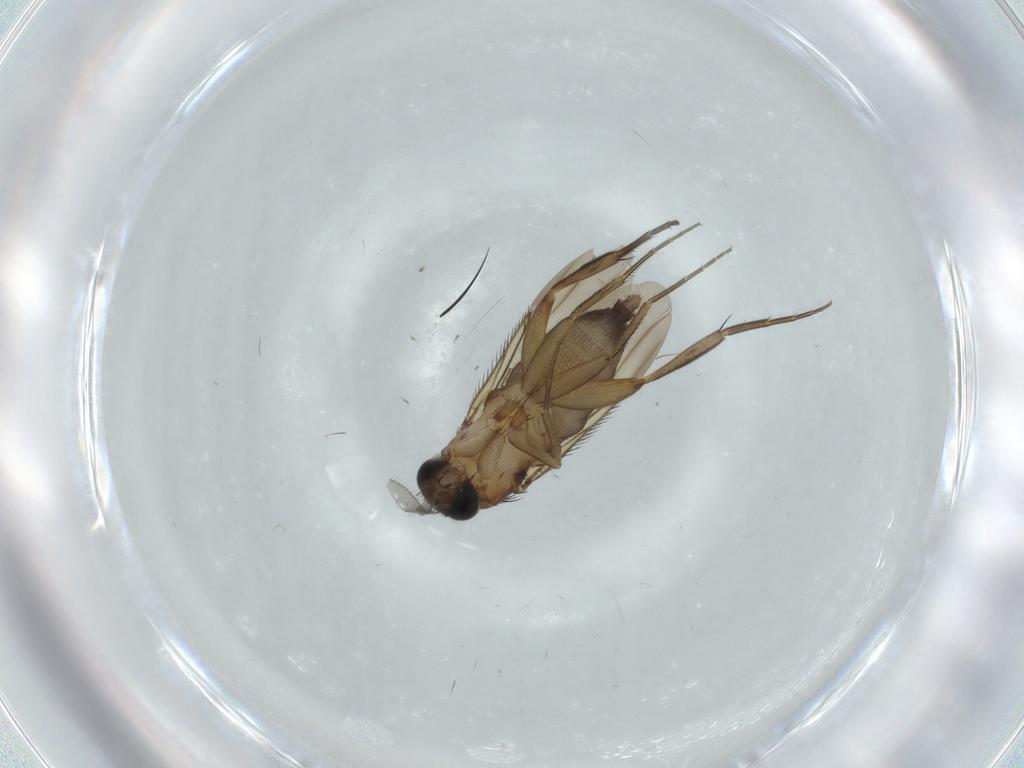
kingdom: Animalia
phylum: Arthropoda
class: Insecta
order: Diptera
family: Phoridae
